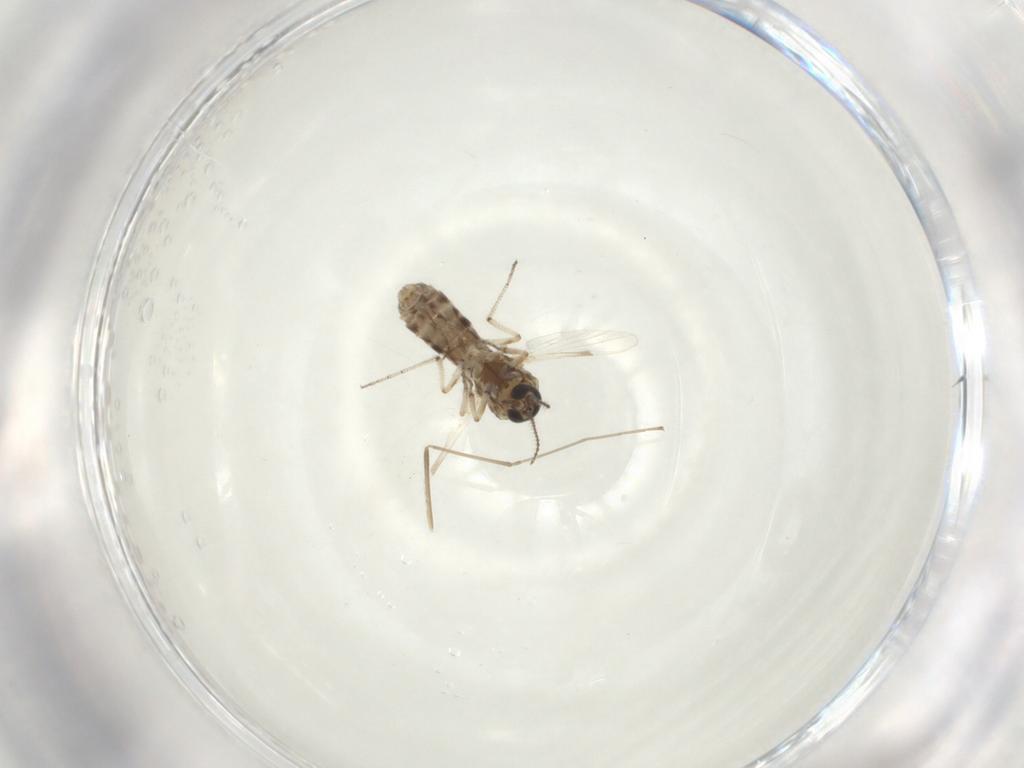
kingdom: Animalia
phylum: Arthropoda
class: Insecta
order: Diptera
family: Ceratopogonidae
